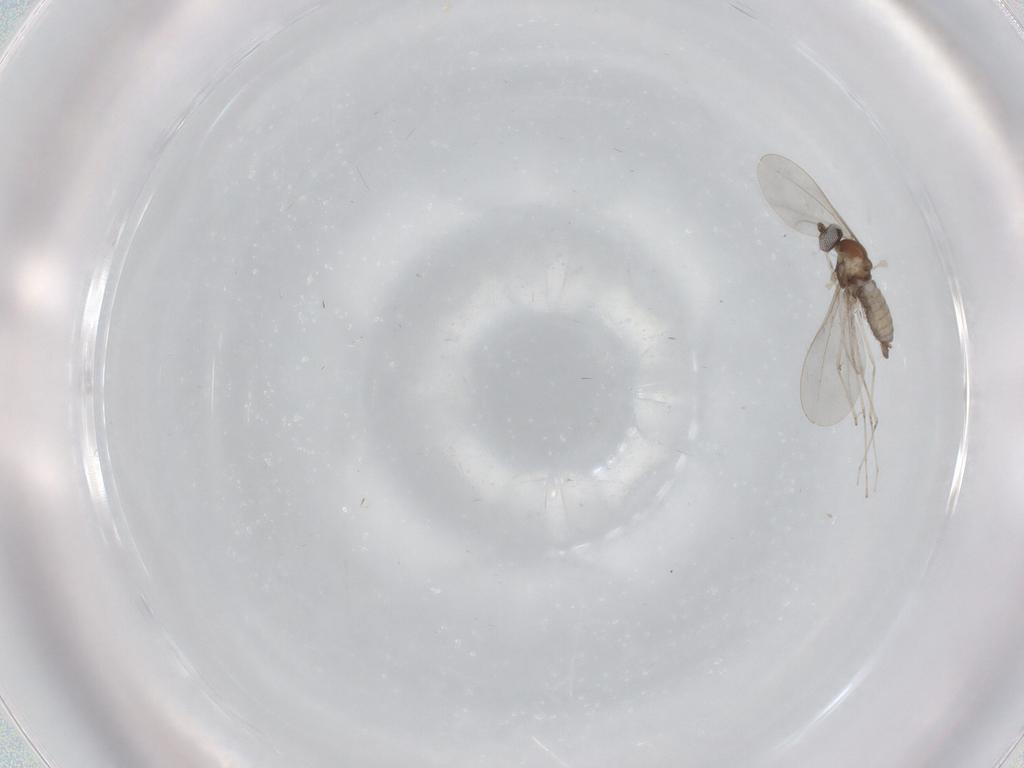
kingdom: Animalia
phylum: Arthropoda
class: Insecta
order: Diptera
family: Cecidomyiidae
